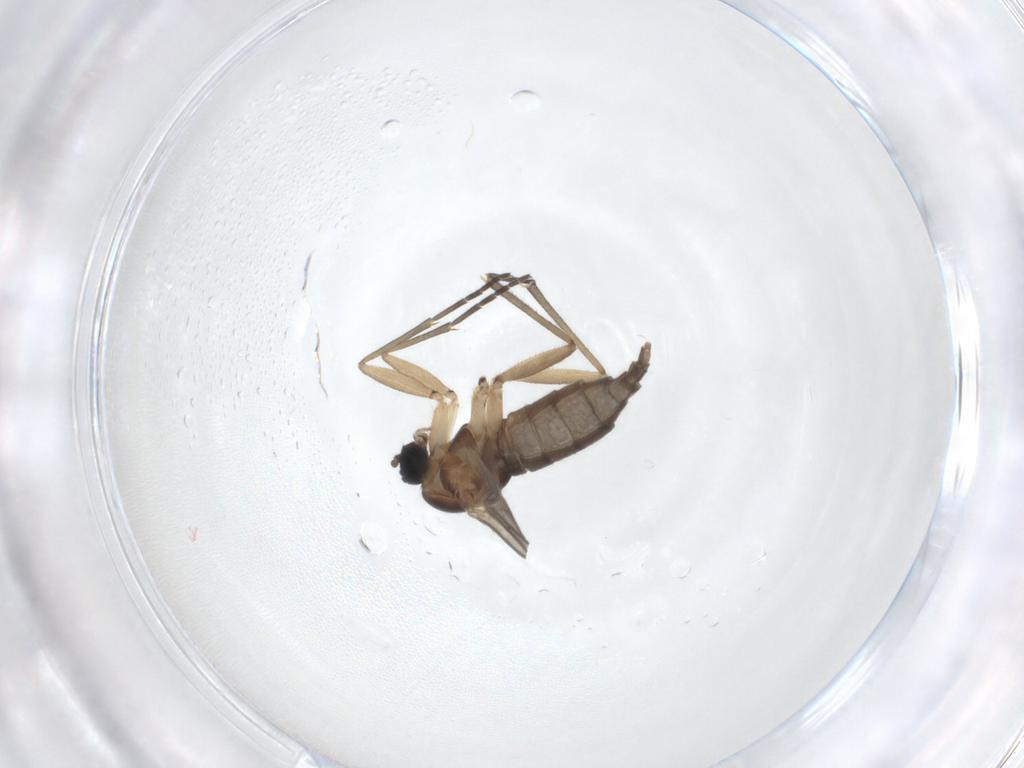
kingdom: Animalia
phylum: Arthropoda
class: Insecta
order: Diptera
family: Sciaridae
